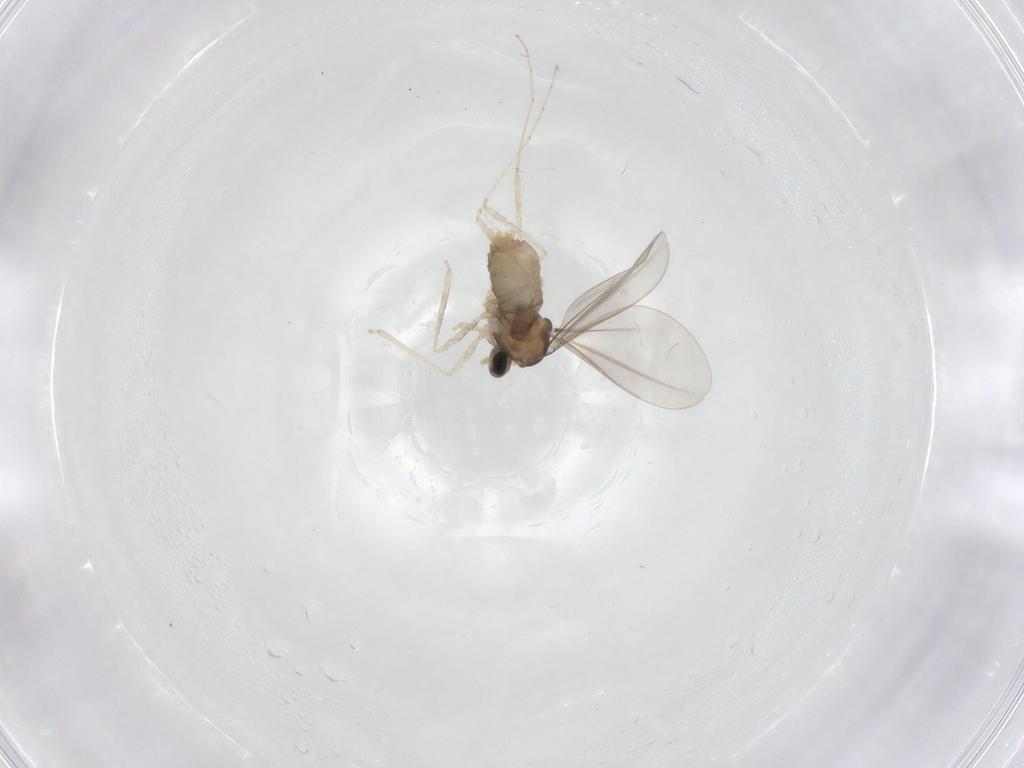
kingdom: Animalia
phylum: Arthropoda
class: Insecta
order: Diptera
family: Cecidomyiidae
